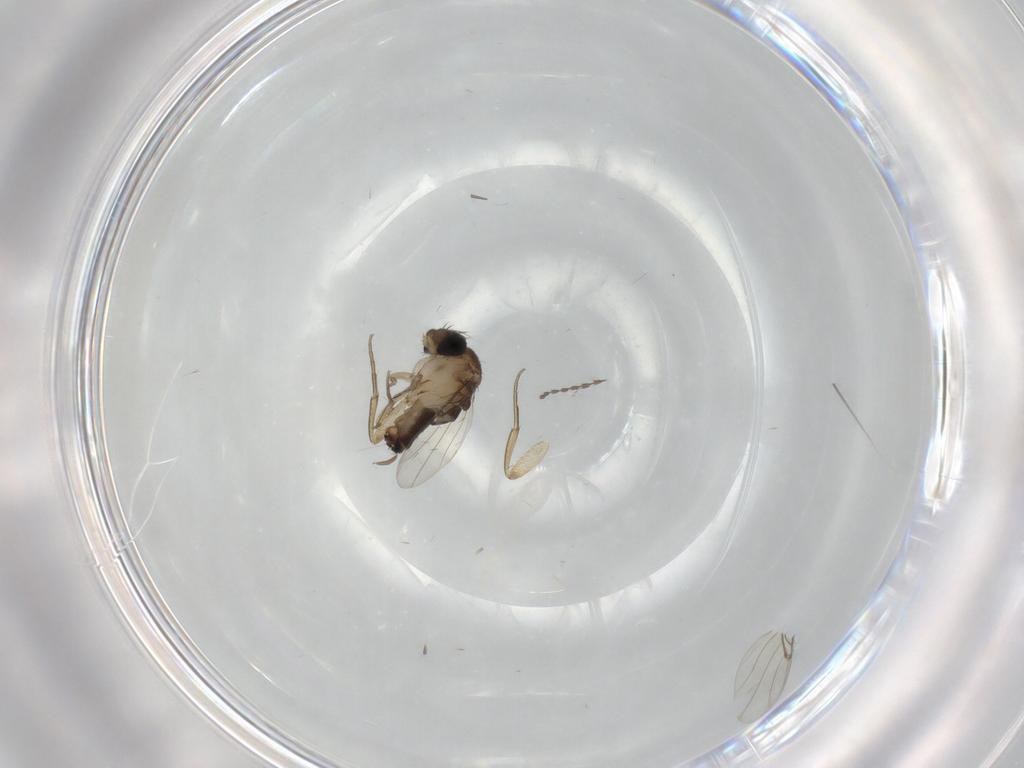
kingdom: Animalia
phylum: Arthropoda
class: Insecta
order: Diptera
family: Cecidomyiidae
